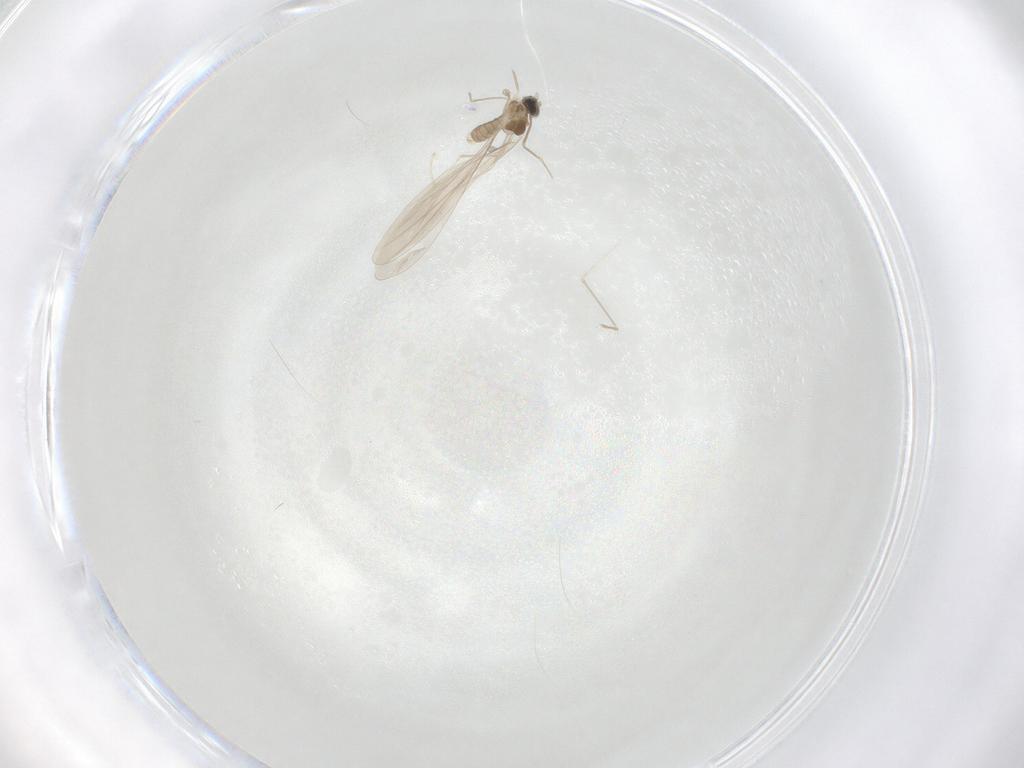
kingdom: Animalia
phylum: Arthropoda
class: Insecta
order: Diptera
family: Cecidomyiidae
